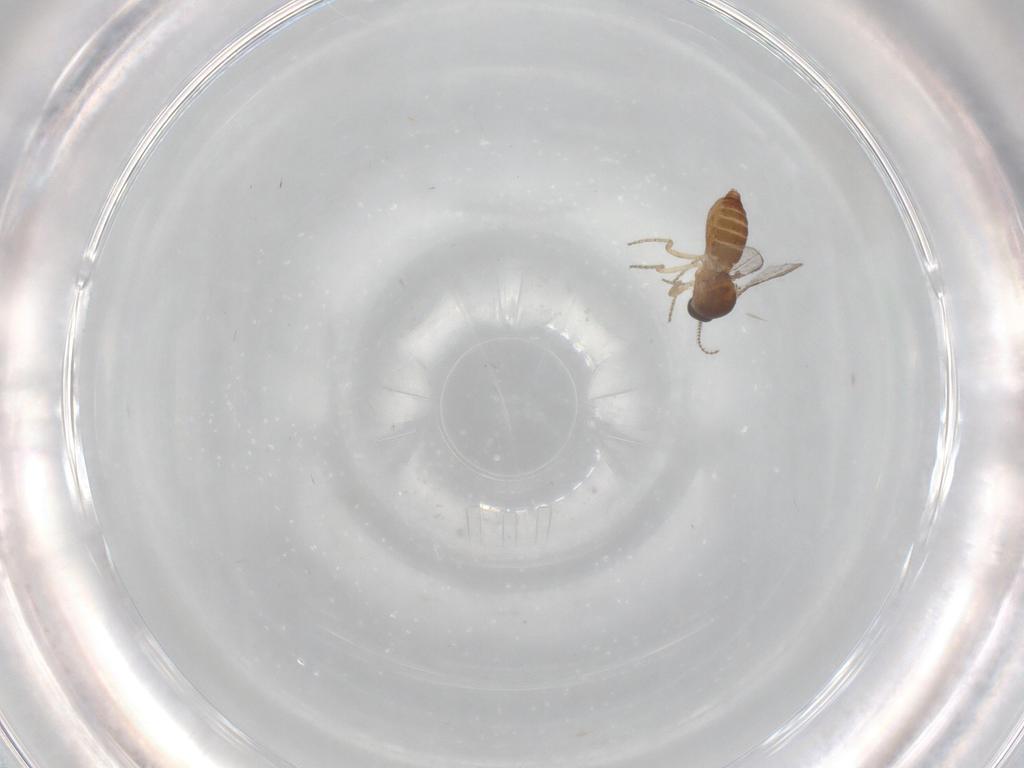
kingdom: Animalia
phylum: Arthropoda
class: Insecta
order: Diptera
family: Ceratopogonidae
